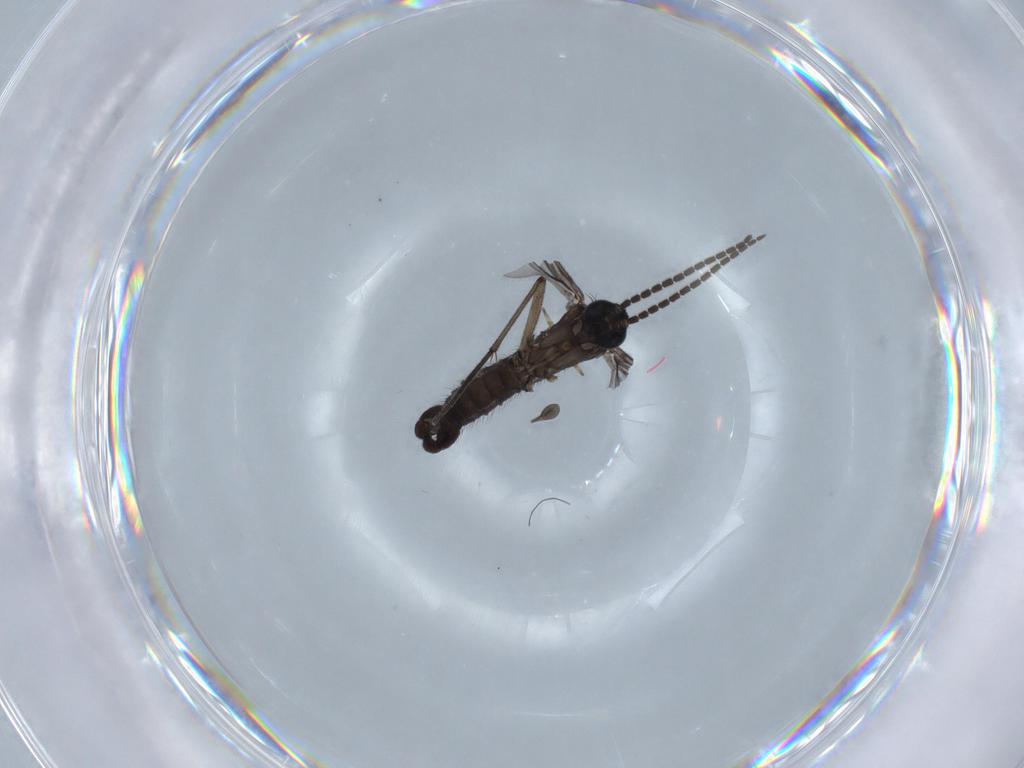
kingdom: Animalia
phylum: Arthropoda
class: Insecta
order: Diptera
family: Sciaridae
